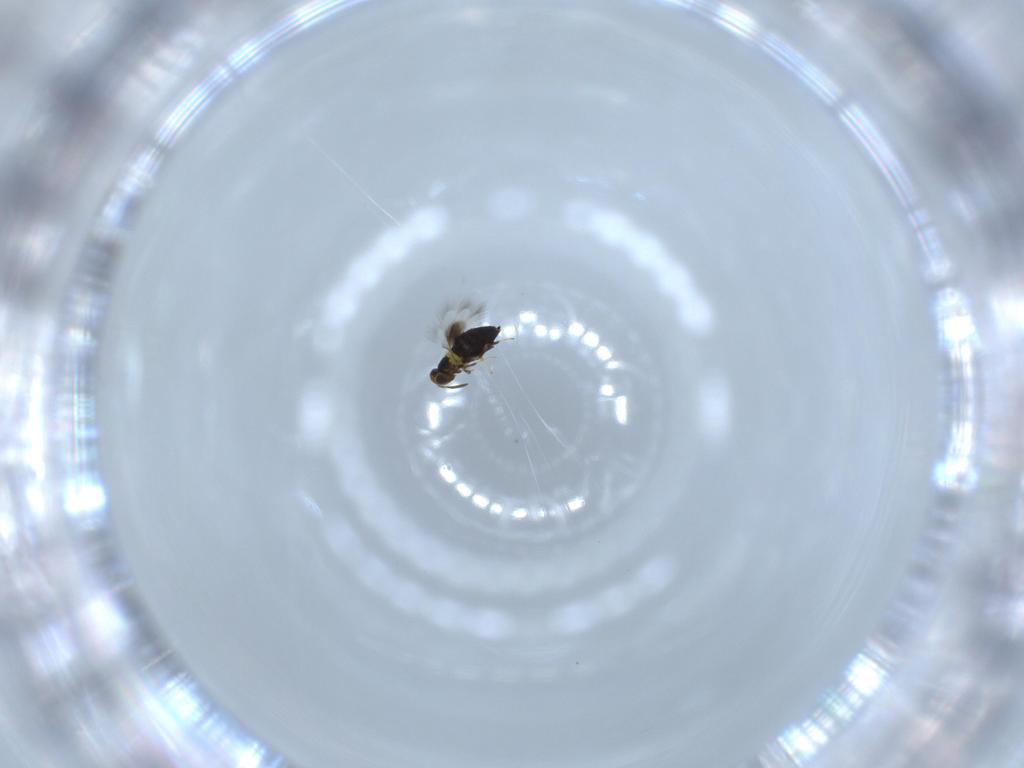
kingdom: Animalia
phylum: Arthropoda
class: Insecta
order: Hymenoptera
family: Signiphoridae
